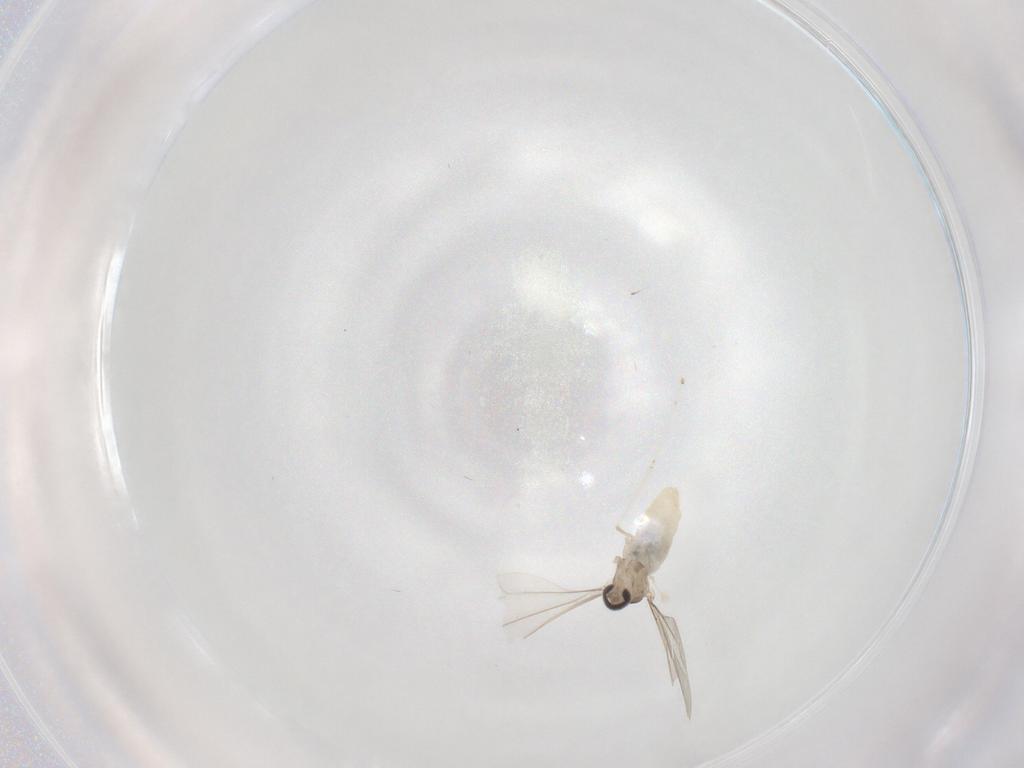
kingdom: Animalia
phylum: Arthropoda
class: Insecta
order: Diptera
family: Cecidomyiidae
